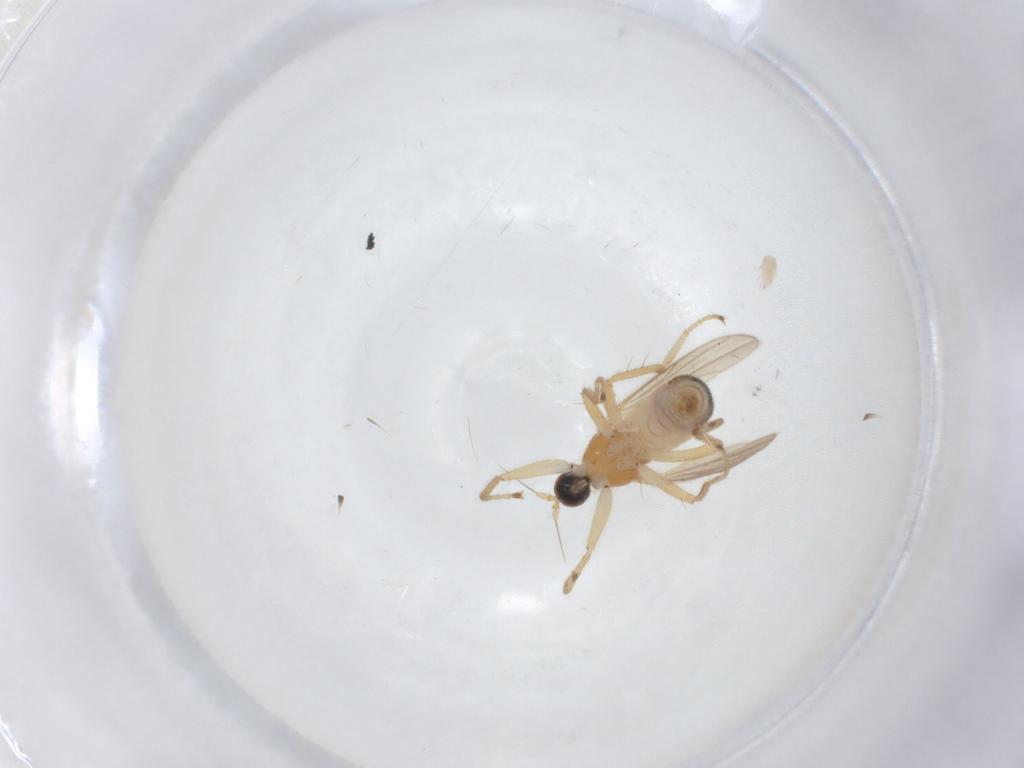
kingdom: Animalia
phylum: Arthropoda
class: Insecta
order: Diptera
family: Hybotidae
